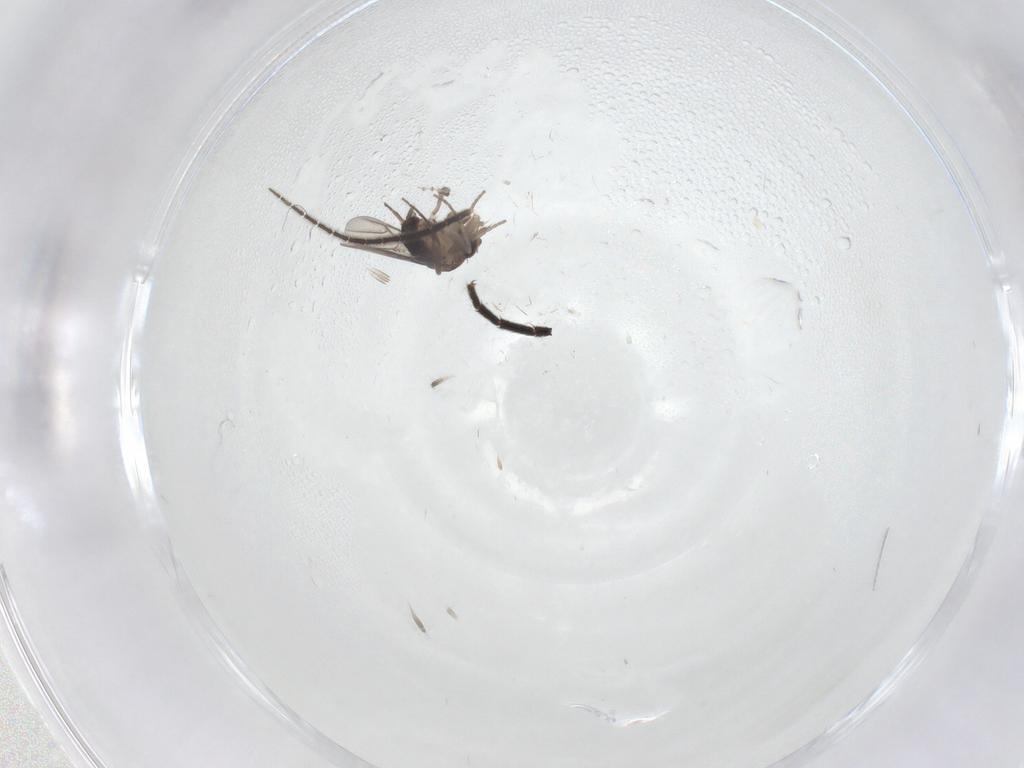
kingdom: Animalia
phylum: Arthropoda
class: Insecta
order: Diptera
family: Phoridae
